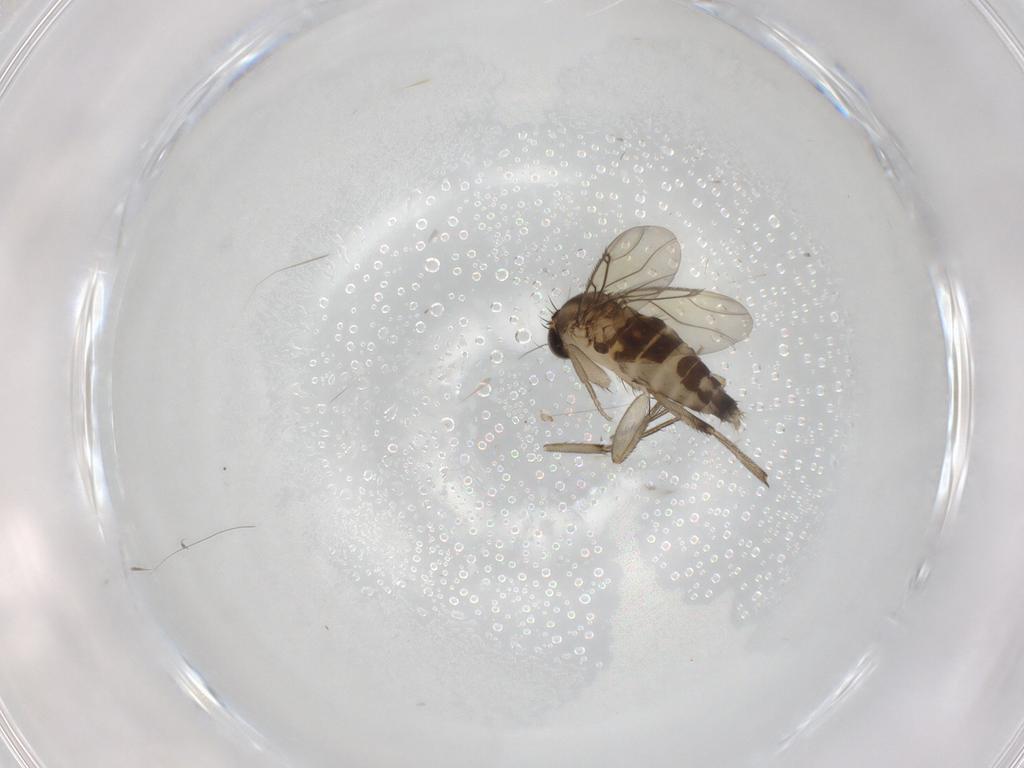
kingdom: Animalia
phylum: Arthropoda
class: Insecta
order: Diptera
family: Phoridae
